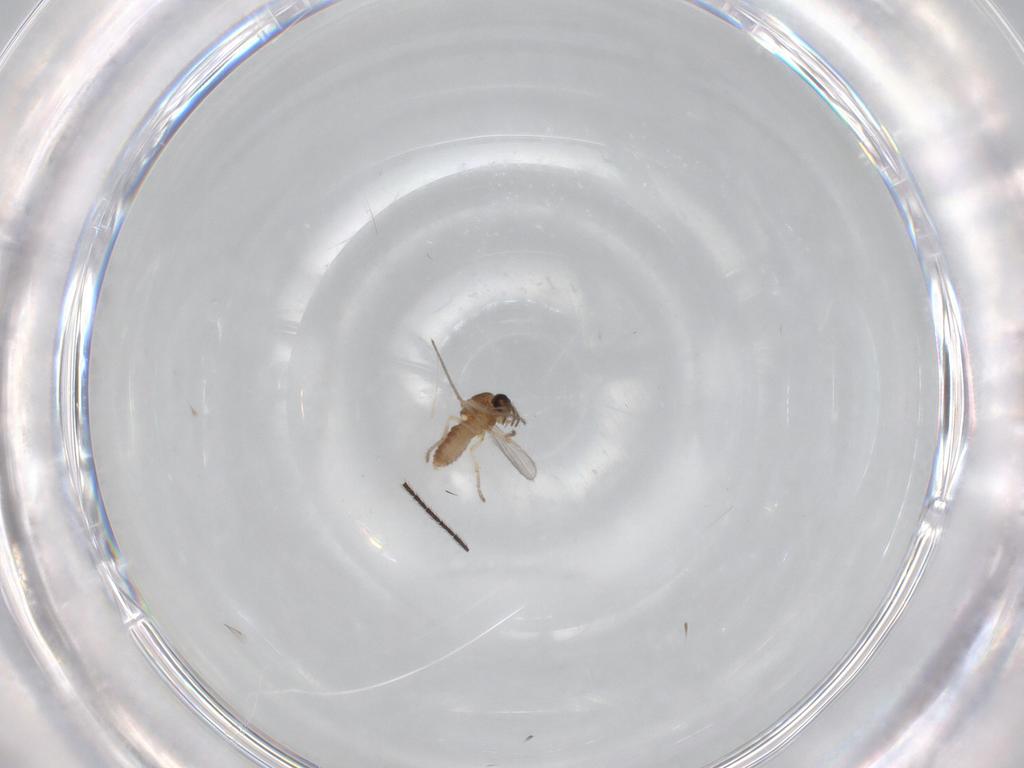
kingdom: Animalia
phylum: Arthropoda
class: Insecta
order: Diptera
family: Ceratopogonidae
